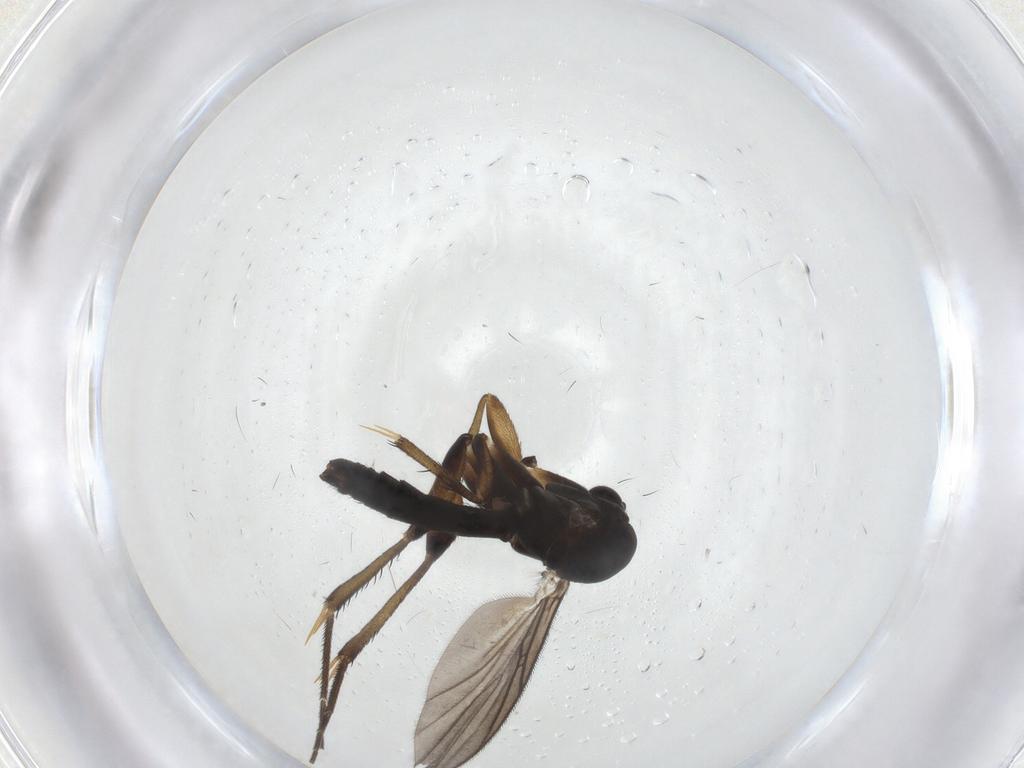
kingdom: Animalia
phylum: Arthropoda
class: Insecta
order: Diptera
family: Mycetophilidae
